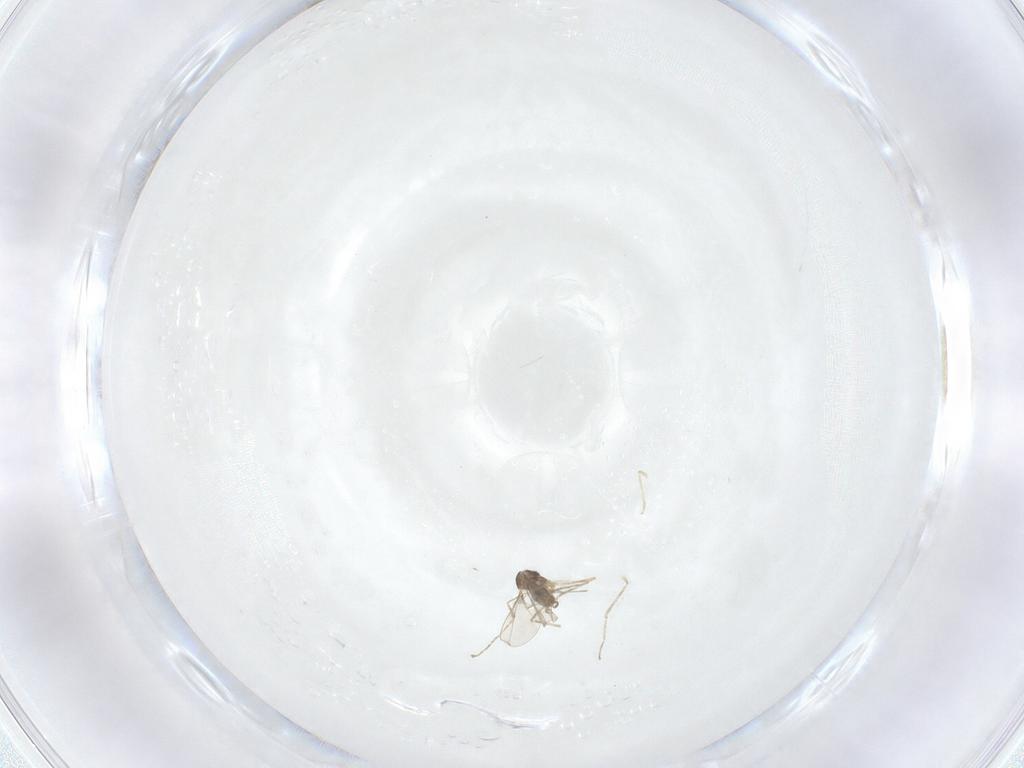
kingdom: Animalia
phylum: Arthropoda
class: Insecta
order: Diptera
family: Cecidomyiidae
